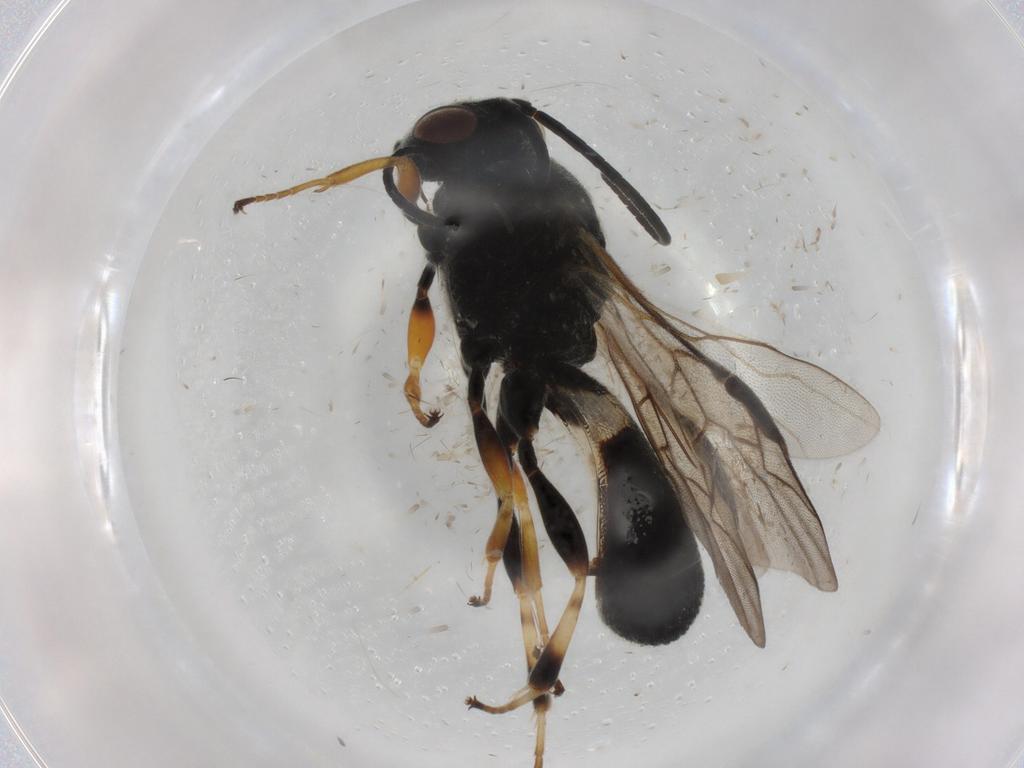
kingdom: Animalia
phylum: Arthropoda
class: Insecta
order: Hymenoptera
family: Braconidae
